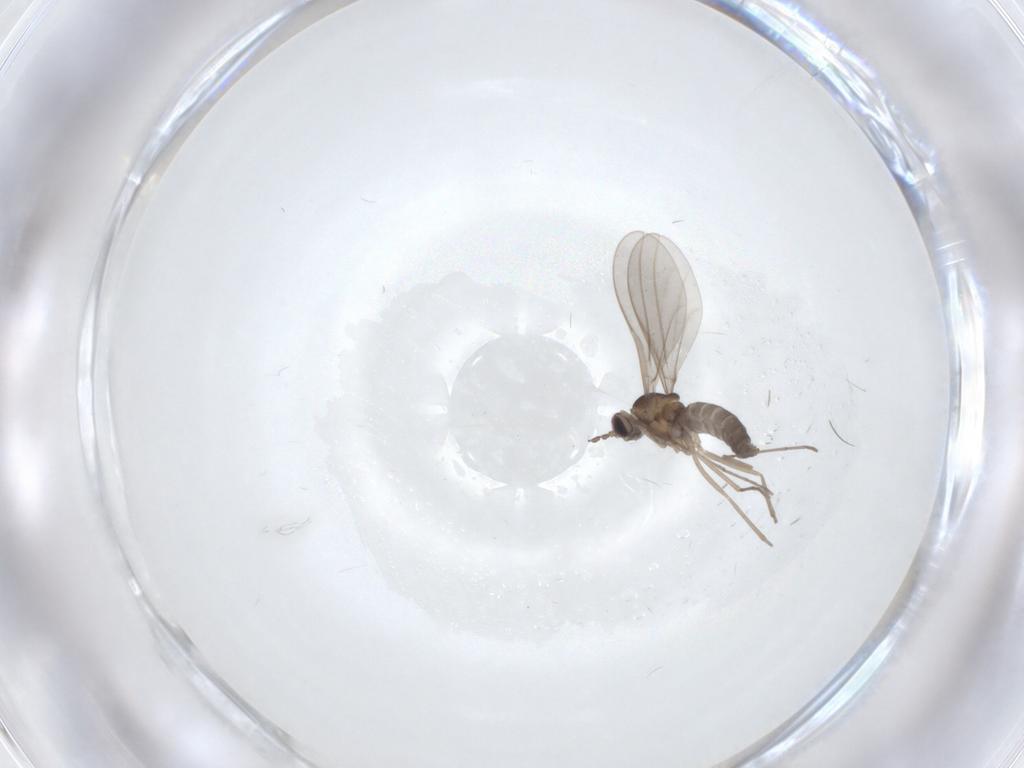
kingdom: Animalia
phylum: Arthropoda
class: Insecta
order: Diptera
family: Cecidomyiidae
